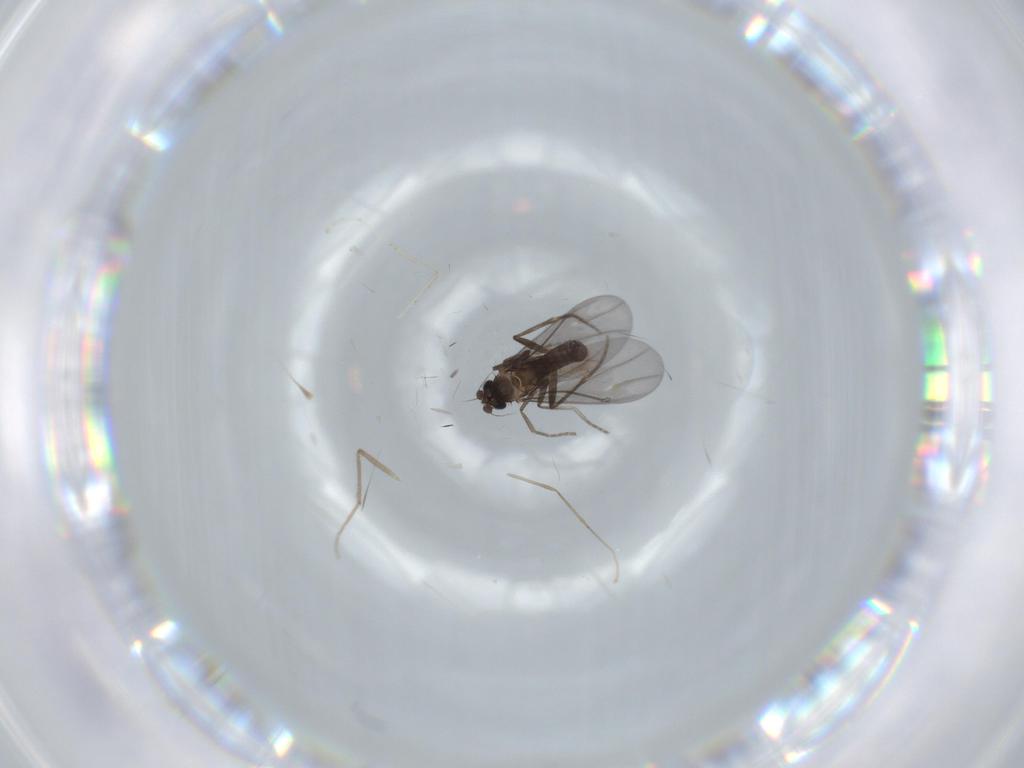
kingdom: Animalia
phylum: Arthropoda
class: Insecta
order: Diptera
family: Phoridae
